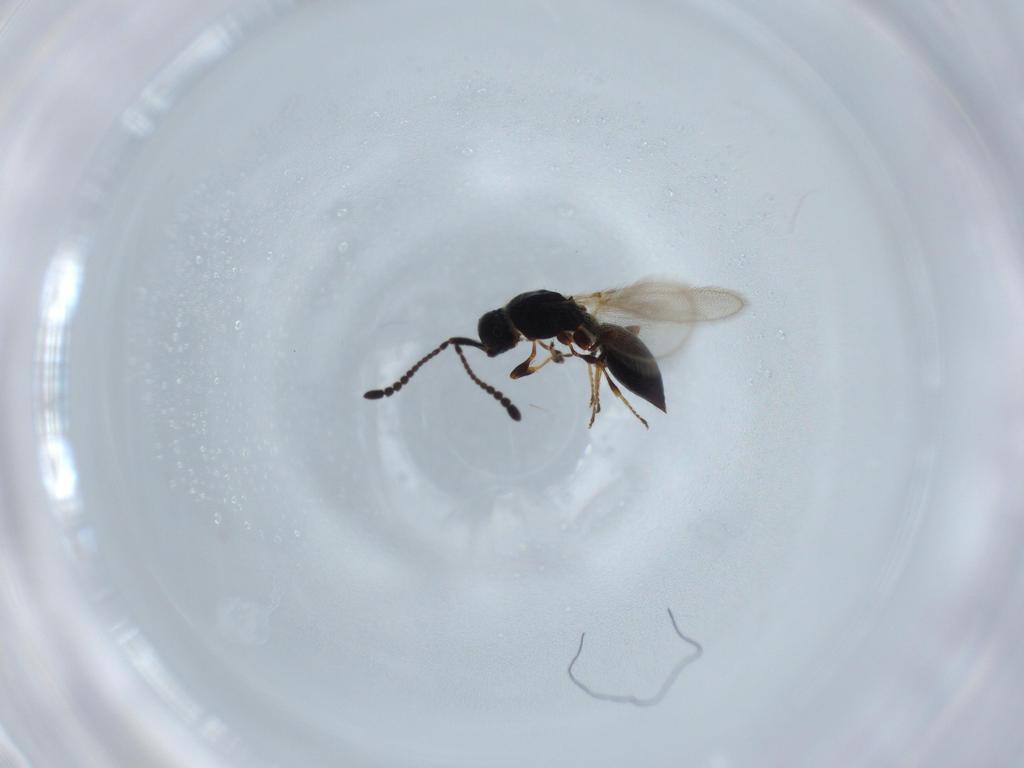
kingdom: Animalia
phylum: Arthropoda
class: Insecta
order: Hymenoptera
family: Diapriidae
